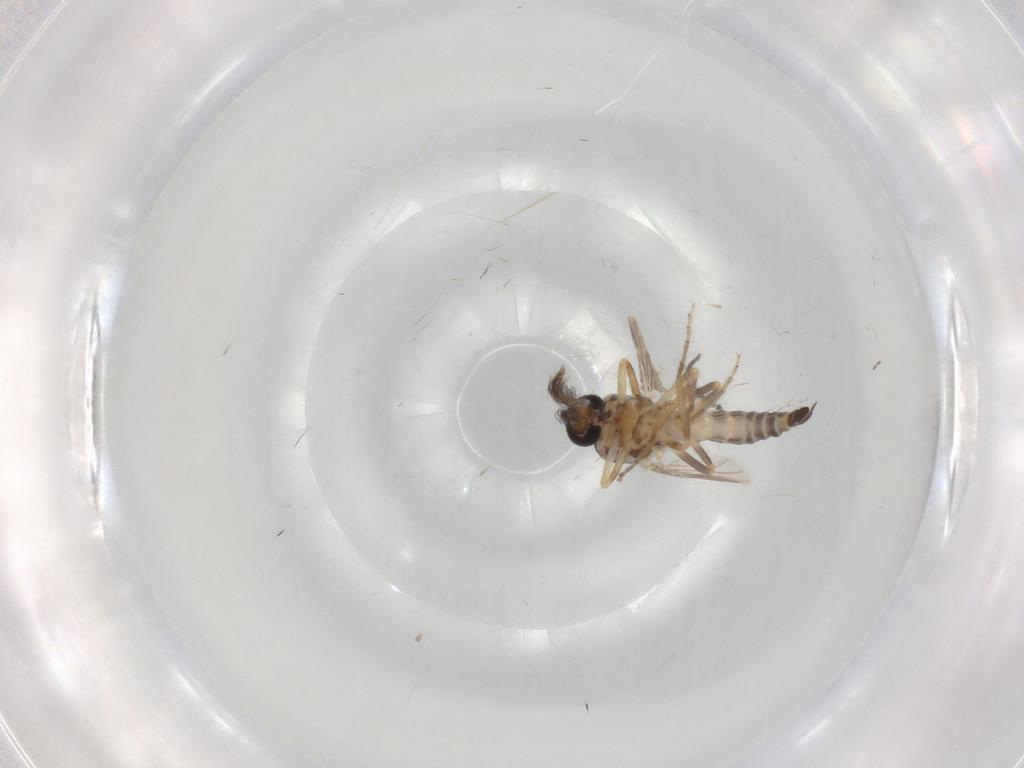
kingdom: Animalia
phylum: Arthropoda
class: Insecta
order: Diptera
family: Ceratopogonidae
